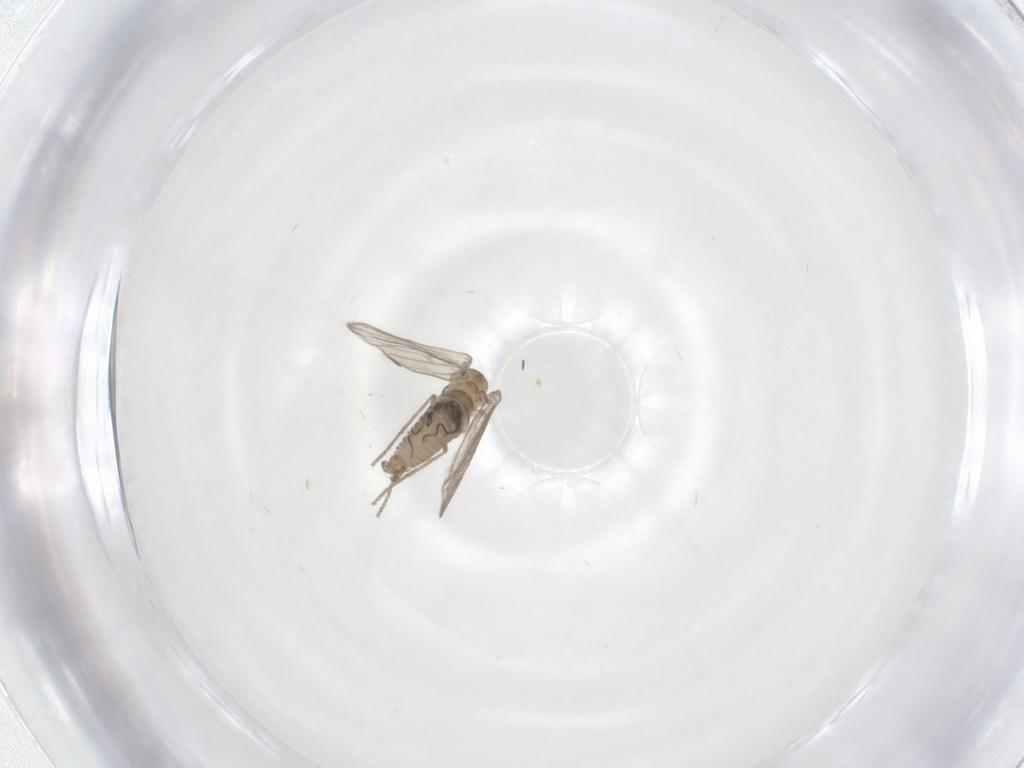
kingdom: Animalia
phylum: Arthropoda
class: Insecta
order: Diptera
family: Psychodidae
